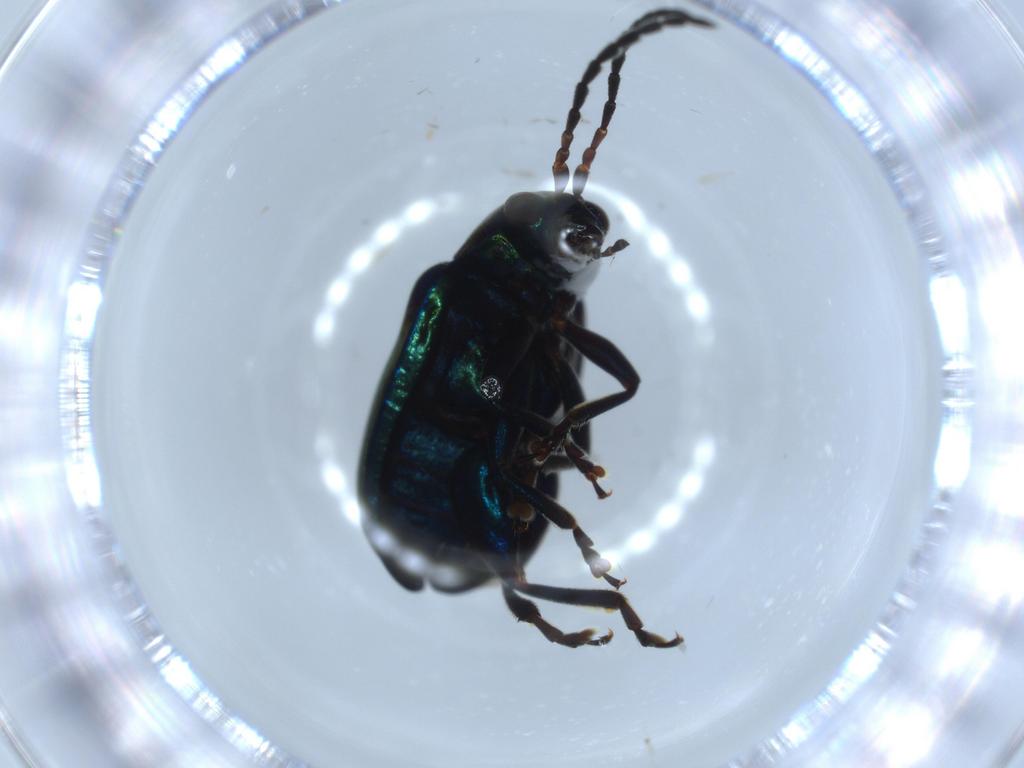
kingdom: Animalia
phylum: Arthropoda
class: Insecta
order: Coleoptera
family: Chrysomelidae
